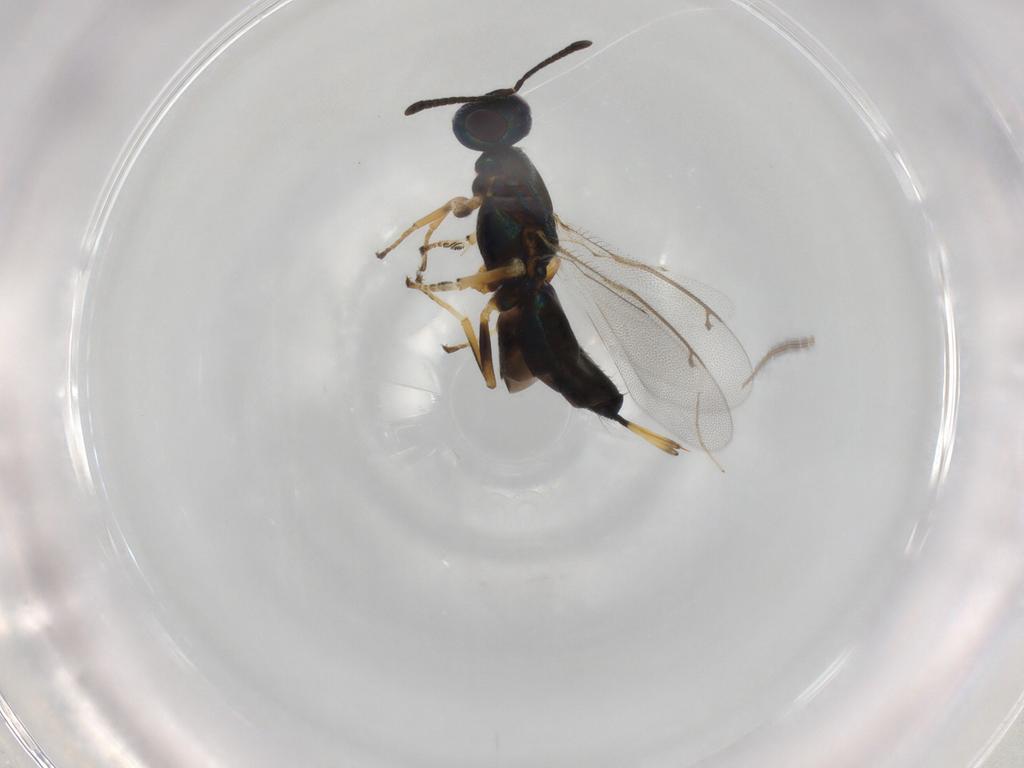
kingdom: Animalia
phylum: Arthropoda
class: Insecta
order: Hymenoptera
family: Eupelmidae
